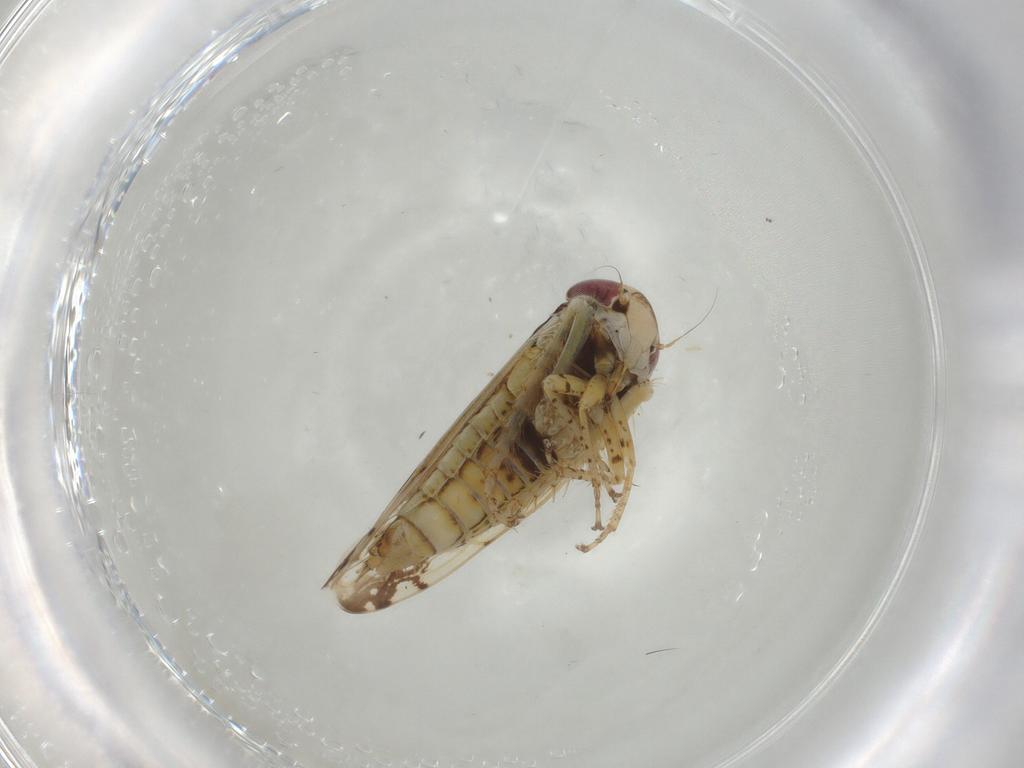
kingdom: Animalia
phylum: Arthropoda
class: Insecta
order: Hemiptera
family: Cicadellidae
